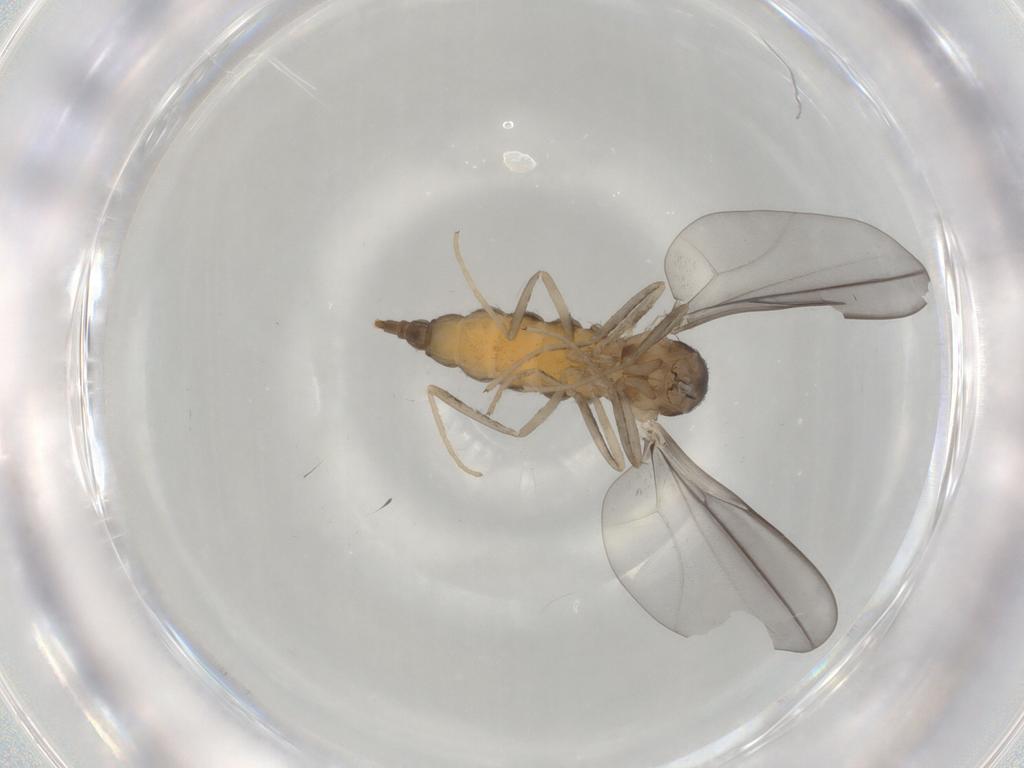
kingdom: Animalia
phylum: Arthropoda
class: Insecta
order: Diptera
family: Cecidomyiidae
